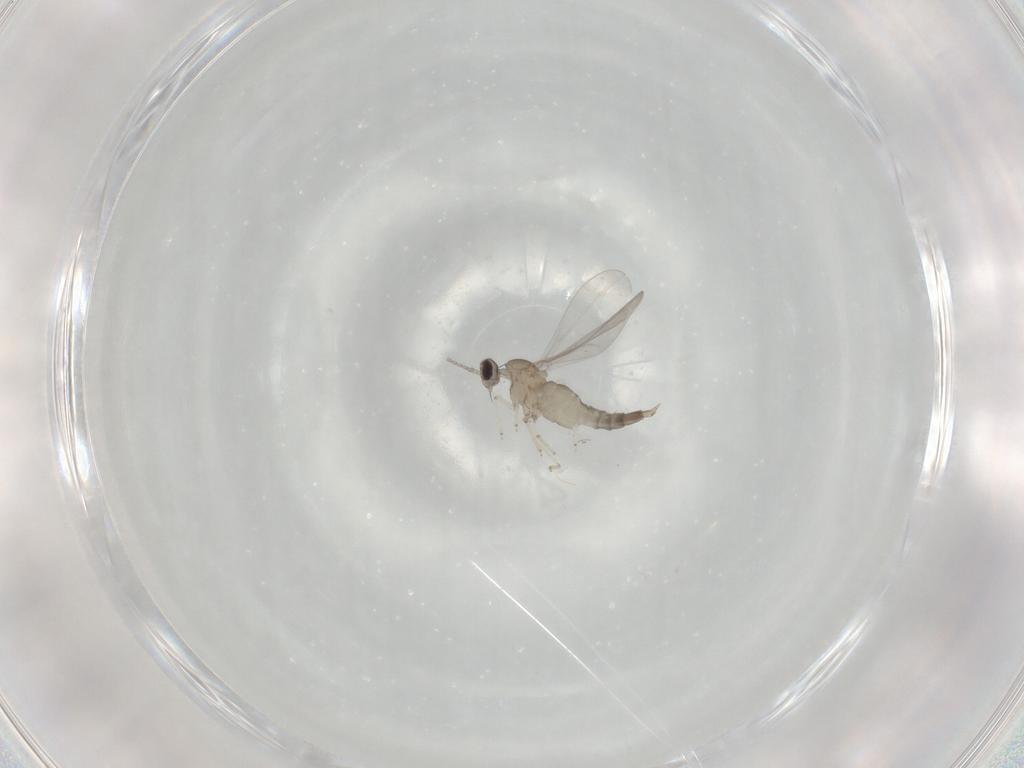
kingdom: Animalia
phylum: Arthropoda
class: Insecta
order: Diptera
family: Cecidomyiidae
